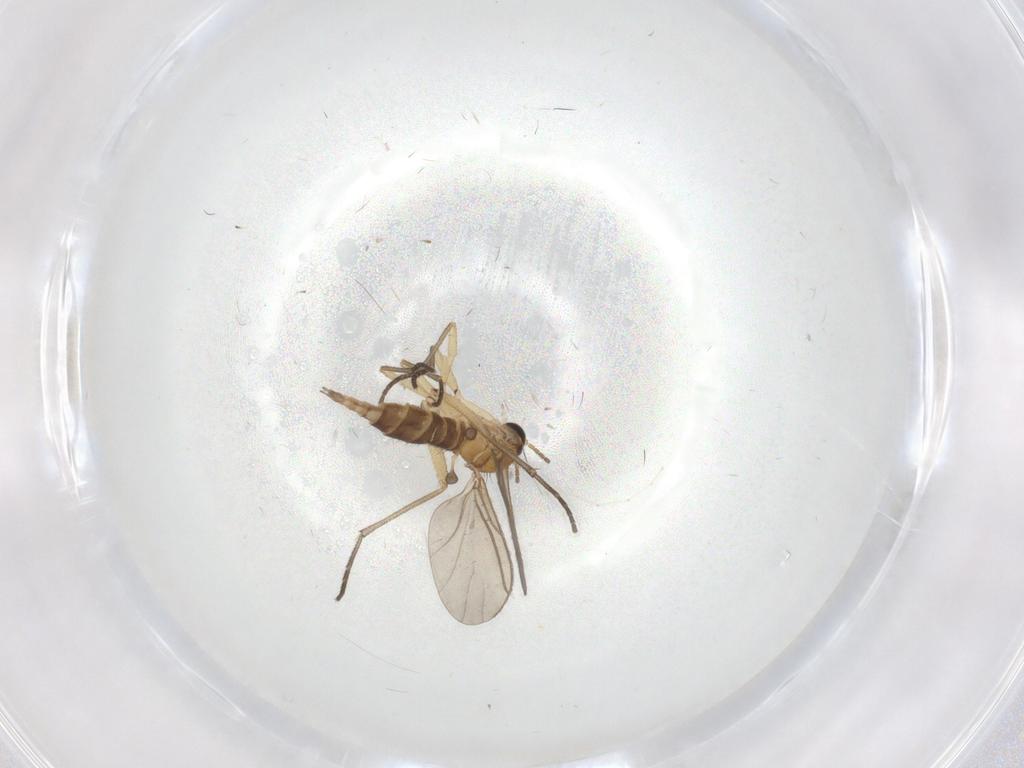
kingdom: Animalia
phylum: Arthropoda
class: Insecta
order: Diptera
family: Cecidomyiidae
